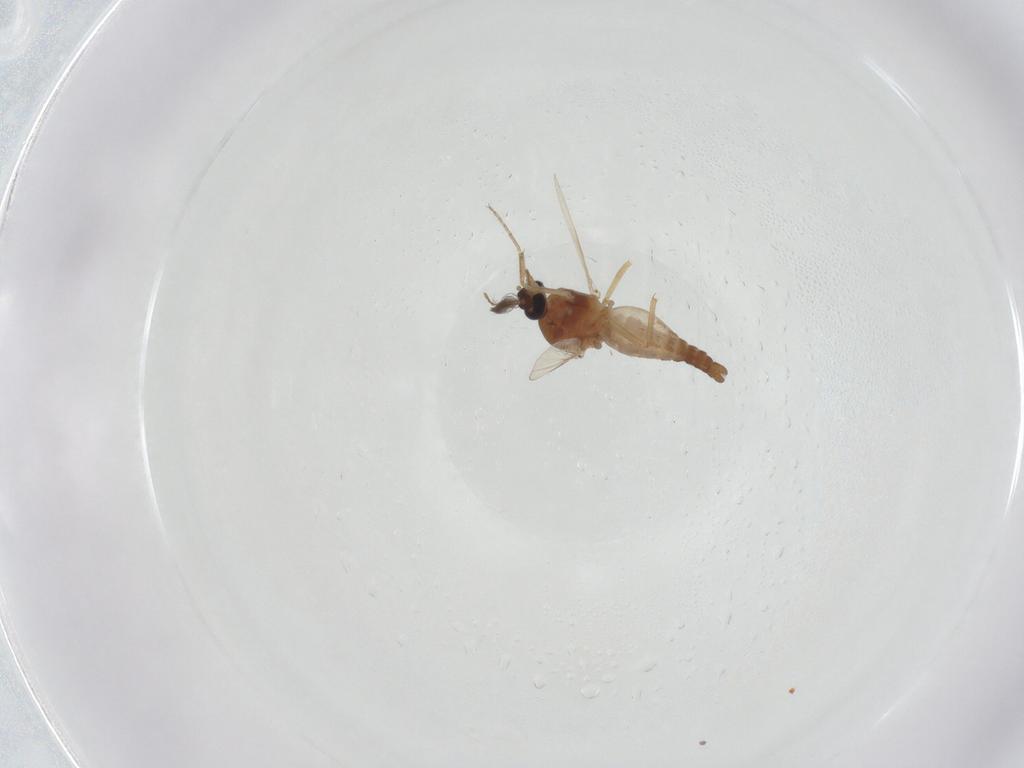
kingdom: Animalia
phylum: Arthropoda
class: Insecta
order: Diptera
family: Ceratopogonidae
